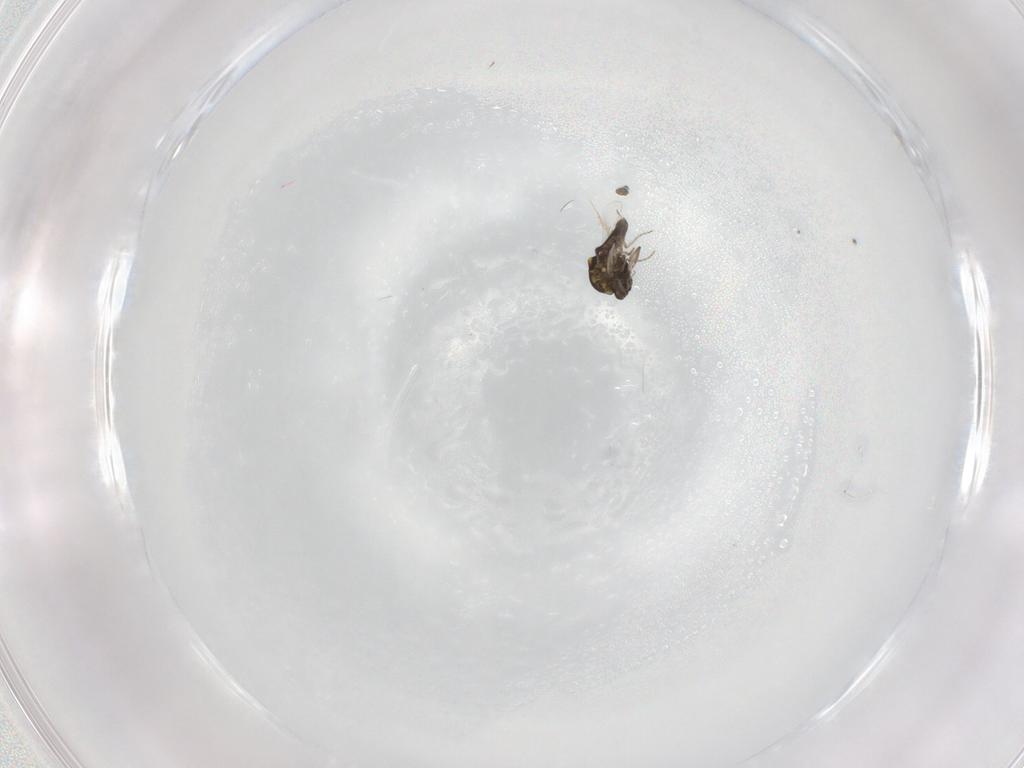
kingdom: Animalia
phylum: Arthropoda
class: Insecta
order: Diptera
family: Ceratopogonidae
